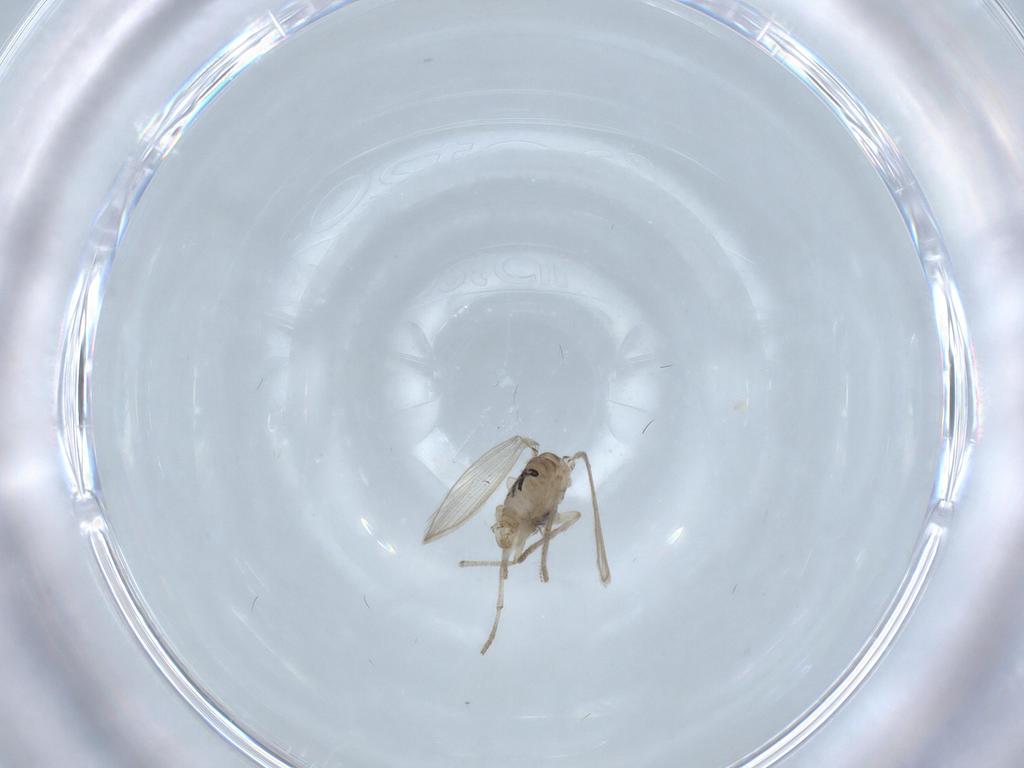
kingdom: Animalia
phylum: Arthropoda
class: Insecta
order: Diptera
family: Psychodidae
